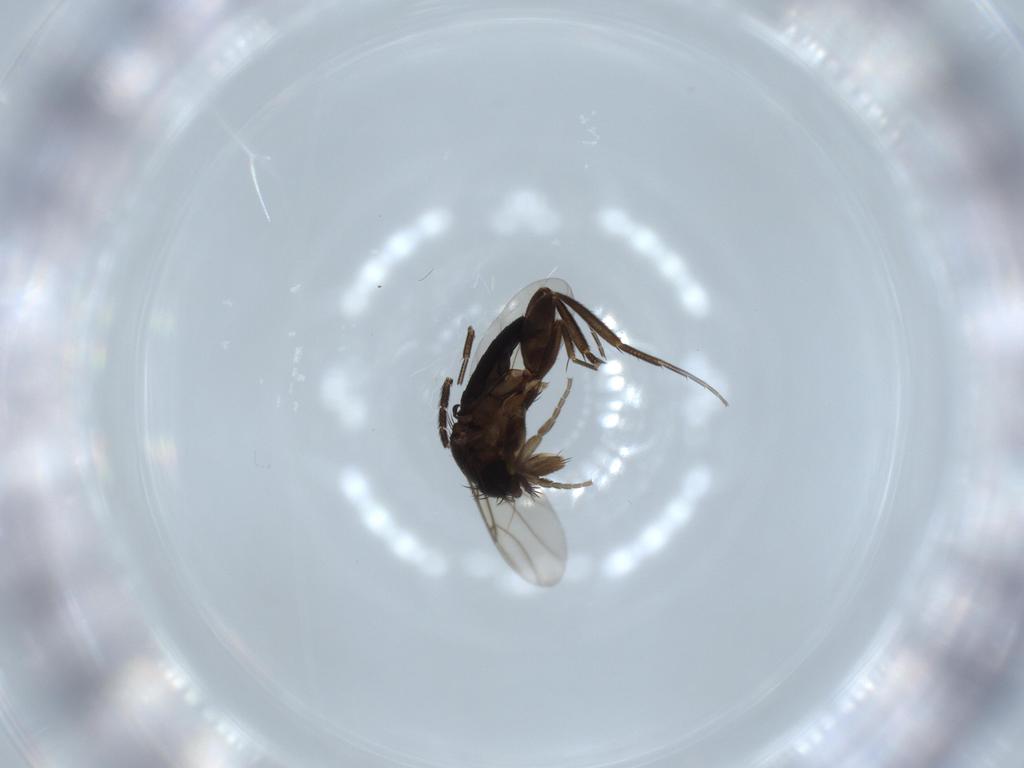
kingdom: Animalia
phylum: Arthropoda
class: Insecta
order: Diptera
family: Phoridae
